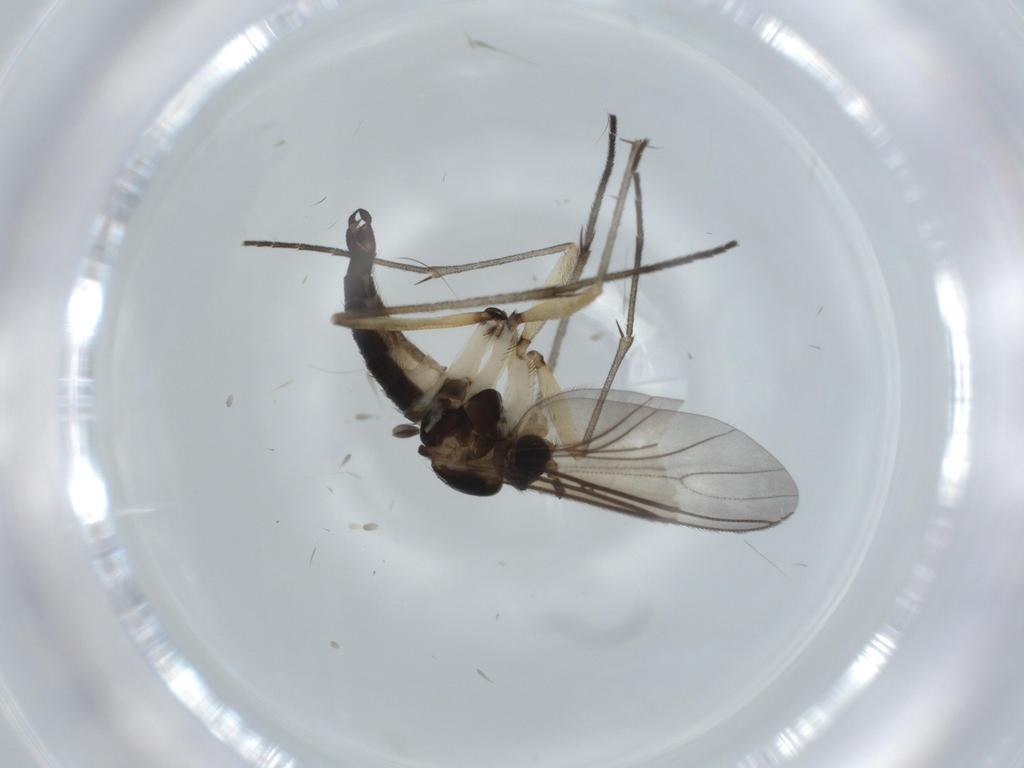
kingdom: Animalia
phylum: Arthropoda
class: Insecta
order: Diptera
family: Sciaridae
